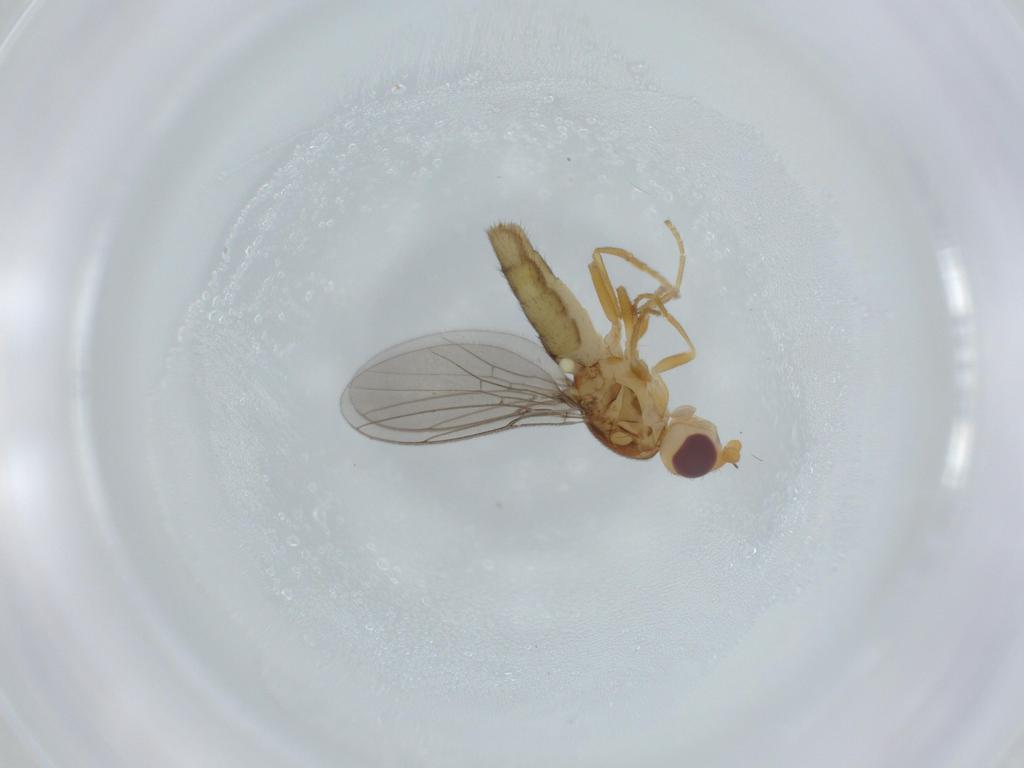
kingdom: Animalia
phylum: Arthropoda
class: Insecta
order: Diptera
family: Chloropidae
